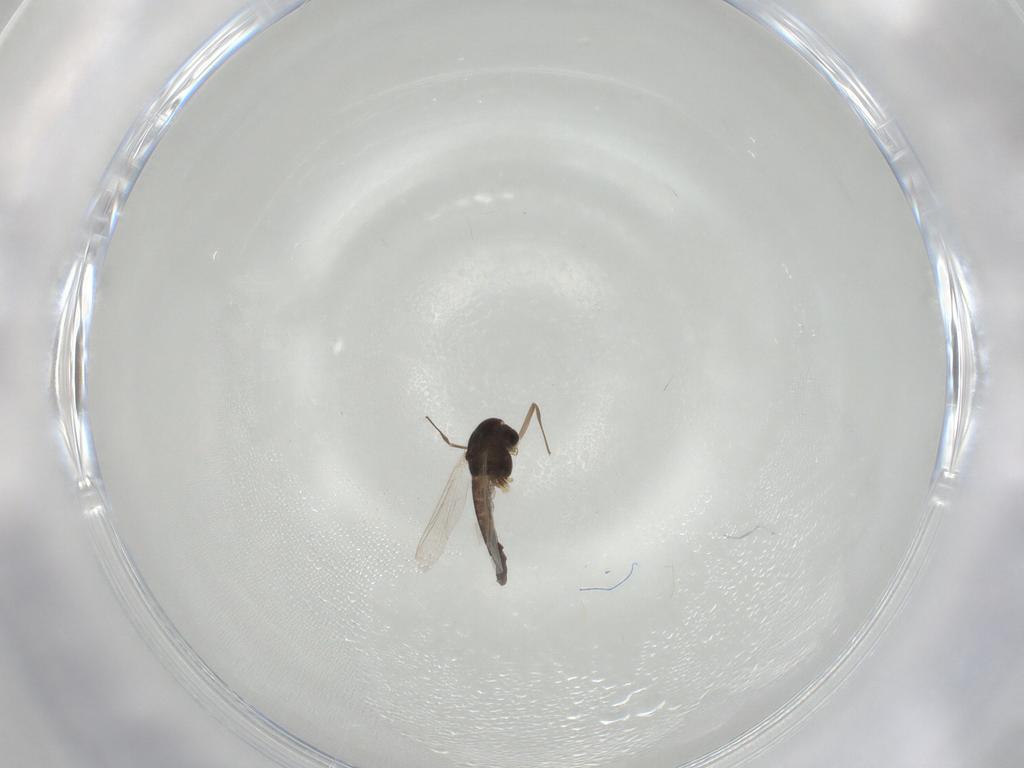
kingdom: Animalia
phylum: Arthropoda
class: Insecta
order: Diptera
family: Chironomidae
